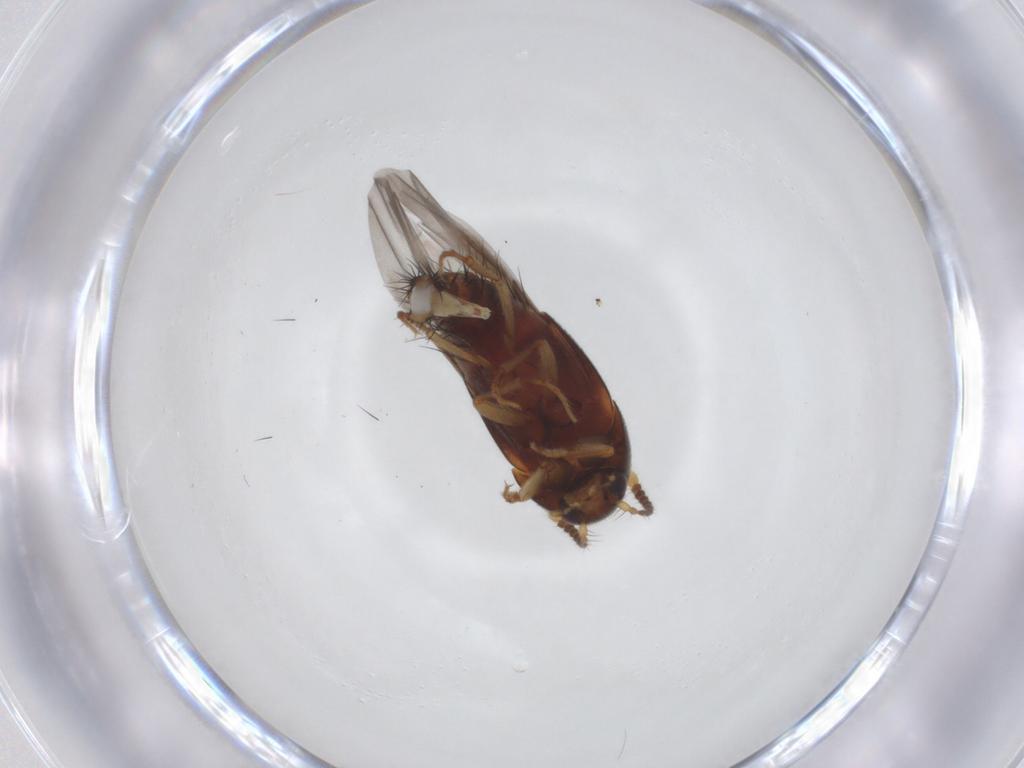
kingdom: Animalia
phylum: Arthropoda
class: Insecta
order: Coleoptera
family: Staphylinidae
